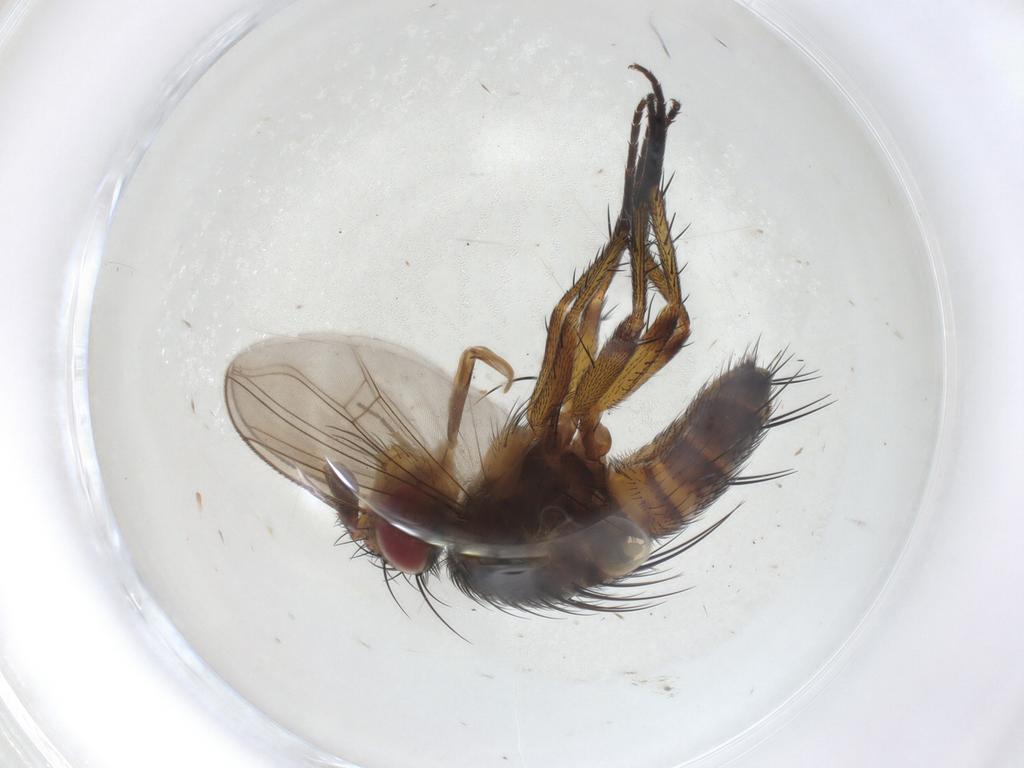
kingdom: Animalia
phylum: Arthropoda
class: Insecta
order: Diptera
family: Tachinidae
